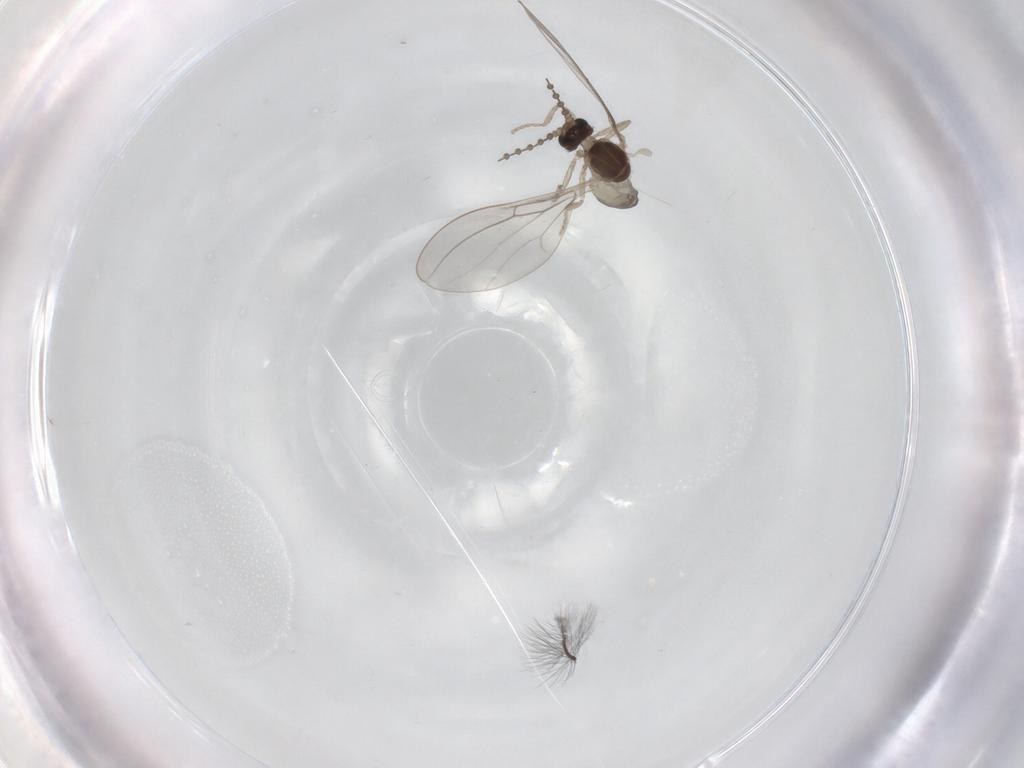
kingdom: Animalia
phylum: Arthropoda
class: Insecta
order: Diptera
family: Cecidomyiidae
